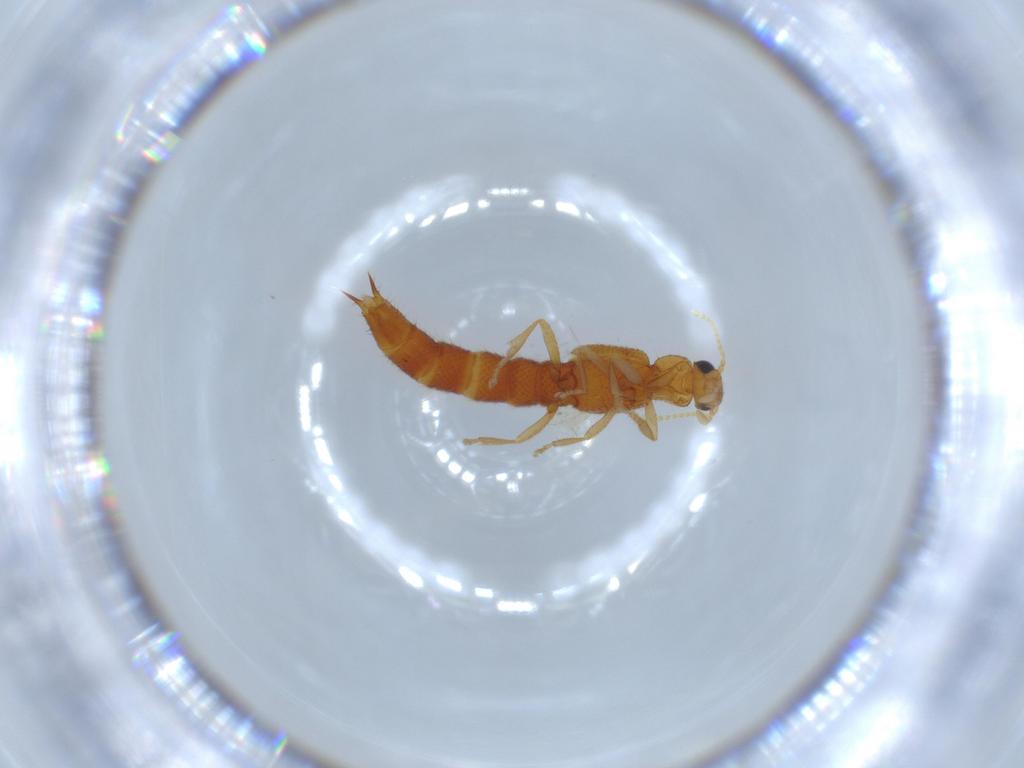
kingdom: Animalia
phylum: Arthropoda
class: Insecta
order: Coleoptera
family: Staphylinidae
